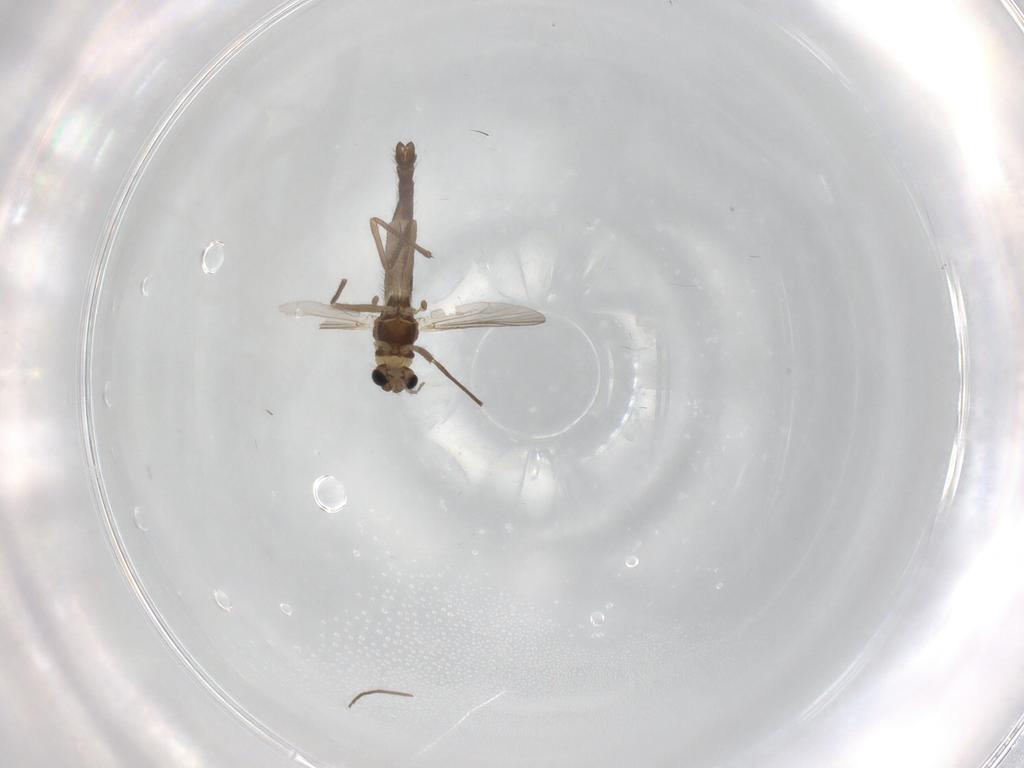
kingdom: Animalia
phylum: Arthropoda
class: Insecta
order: Diptera
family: Chironomidae
